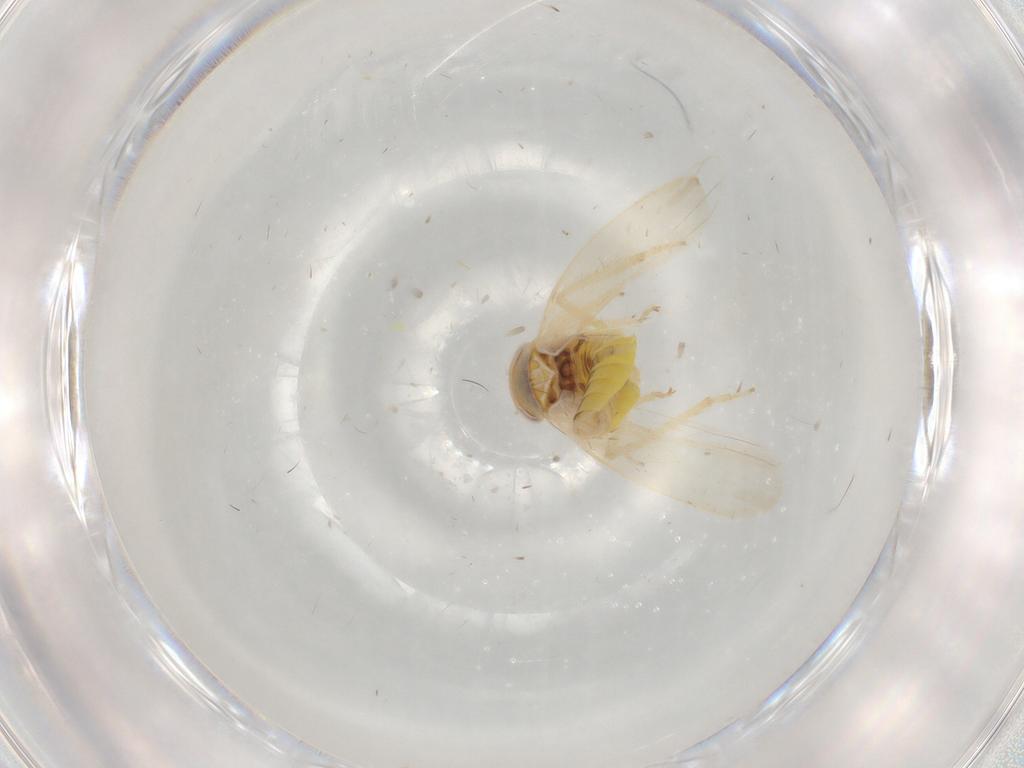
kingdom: Animalia
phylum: Arthropoda
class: Insecta
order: Hemiptera
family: Cicadellidae
